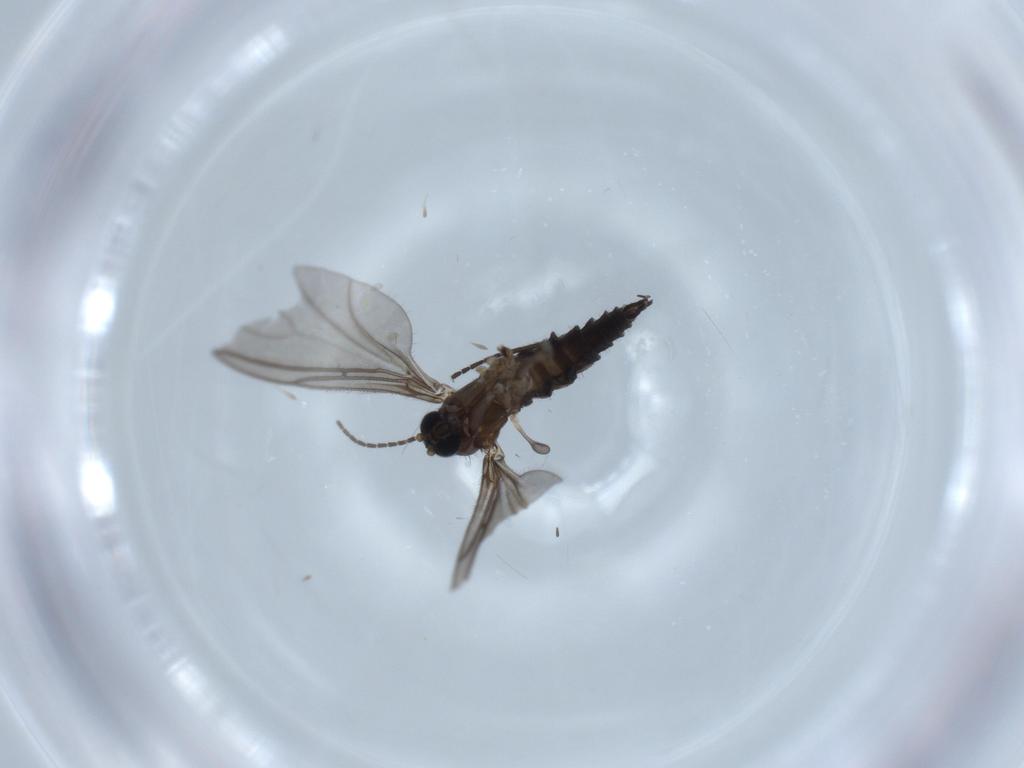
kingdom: Animalia
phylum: Arthropoda
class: Insecta
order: Diptera
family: Sciaridae
